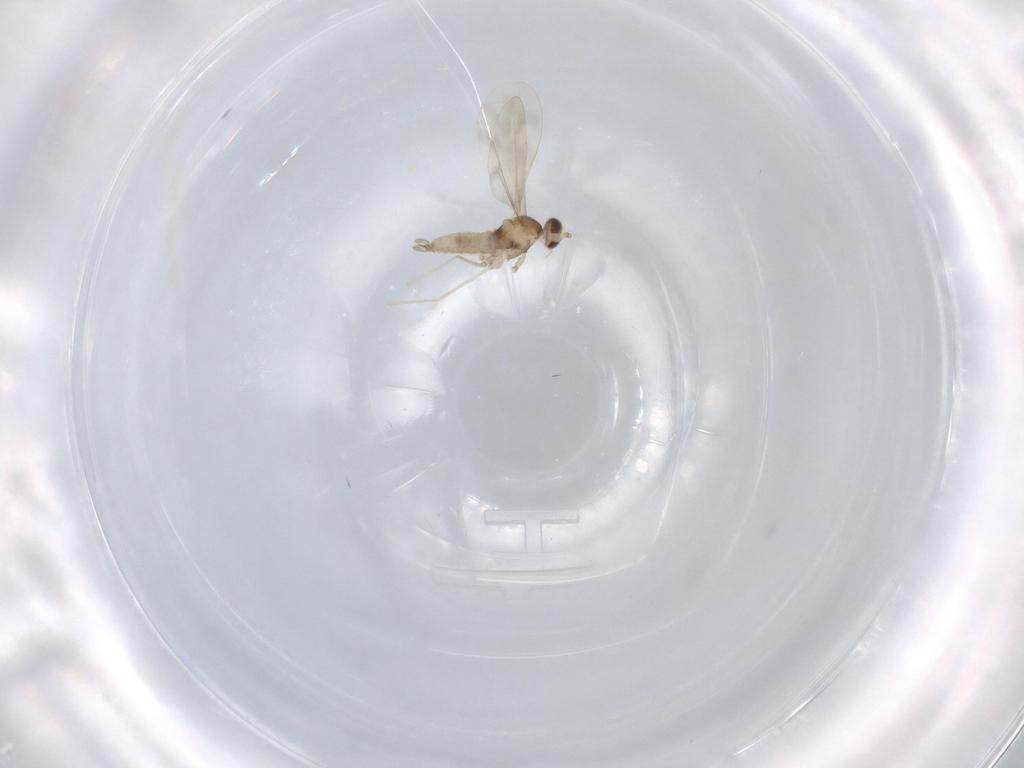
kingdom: Animalia
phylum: Arthropoda
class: Insecta
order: Diptera
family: Cecidomyiidae
